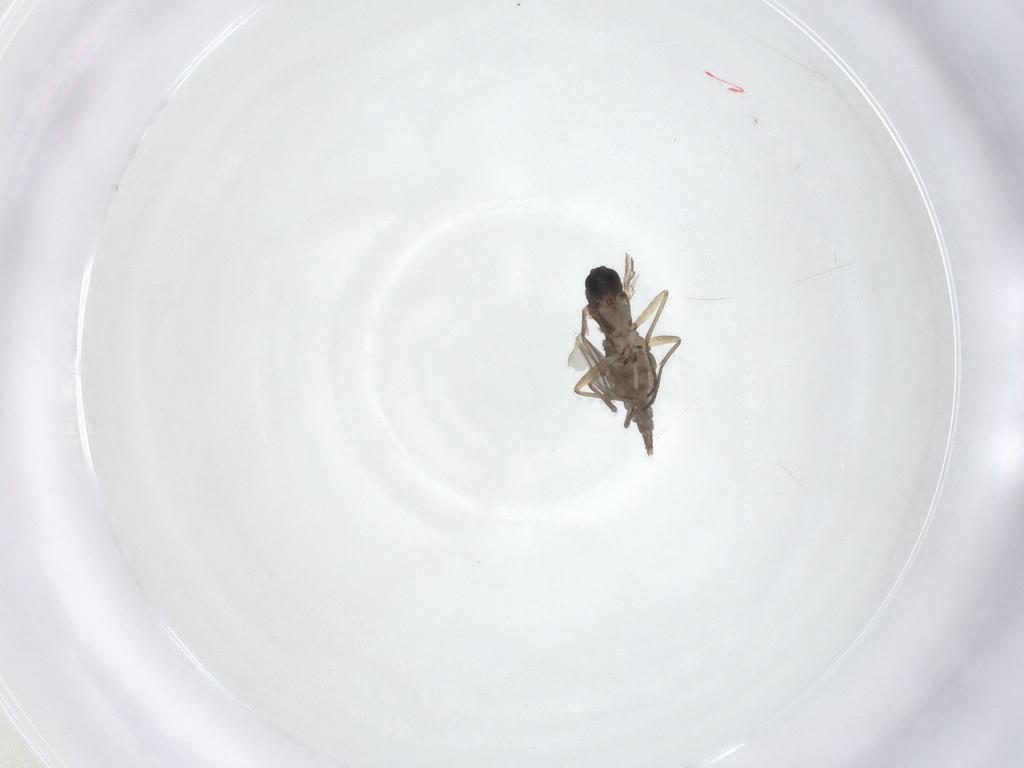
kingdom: Animalia
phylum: Arthropoda
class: Insecta
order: Diptera
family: Sciaridae
